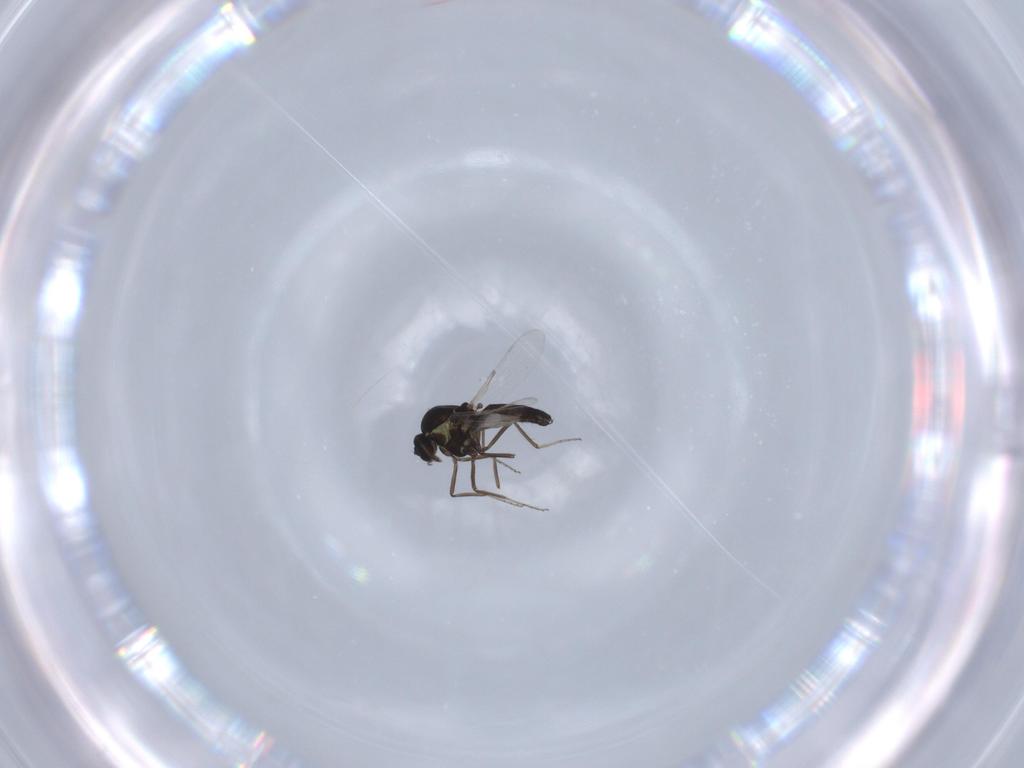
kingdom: Animalia
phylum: Arthropoda
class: Insecta
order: Diptera
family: Ceratopogonidae
